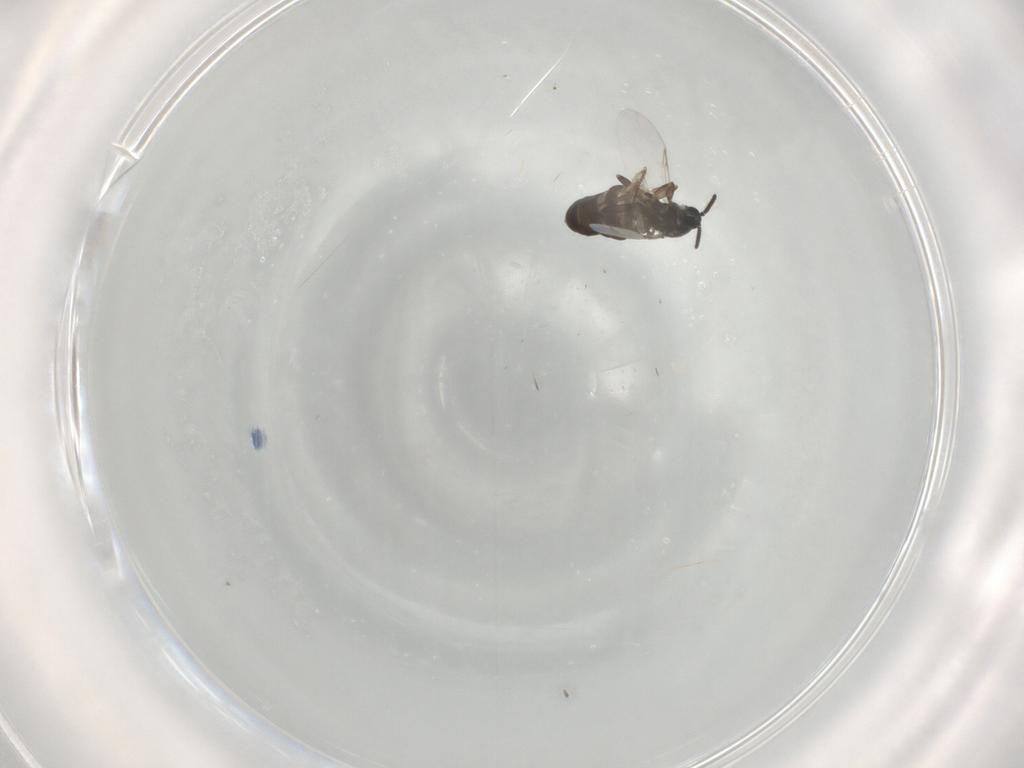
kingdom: Animalia
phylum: Arthropoda
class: Insecta
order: Diptera
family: Scatopsidae
